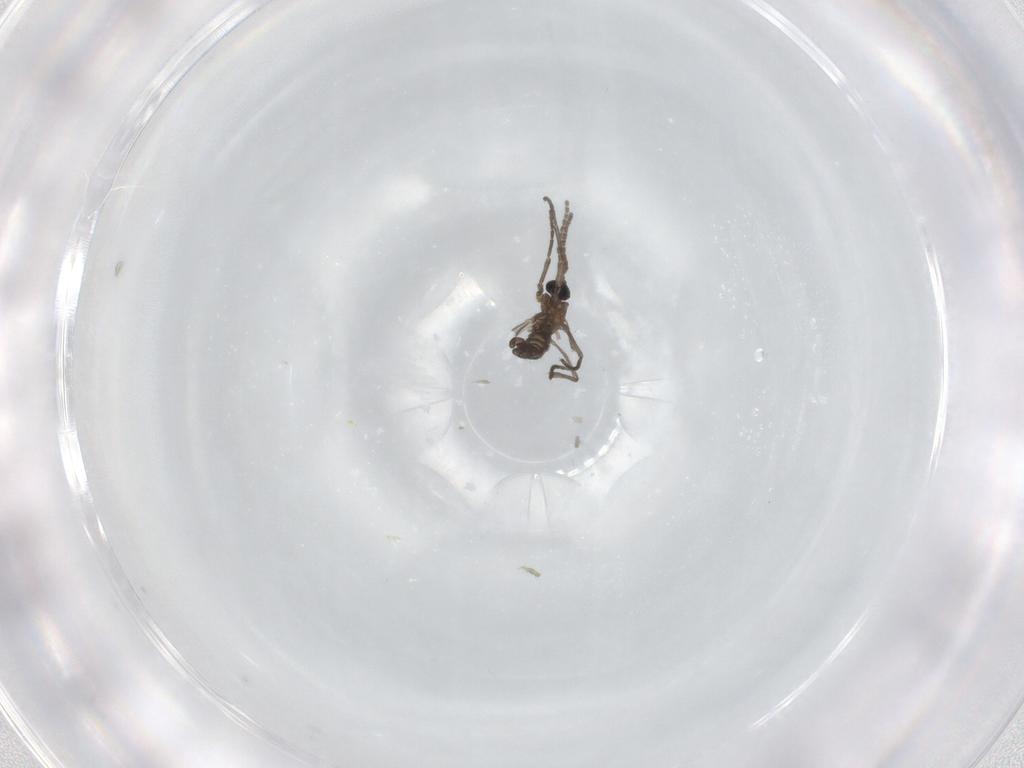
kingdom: Animalia
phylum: Arthropoda
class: Insecta
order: Diptera
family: Sciaridae
